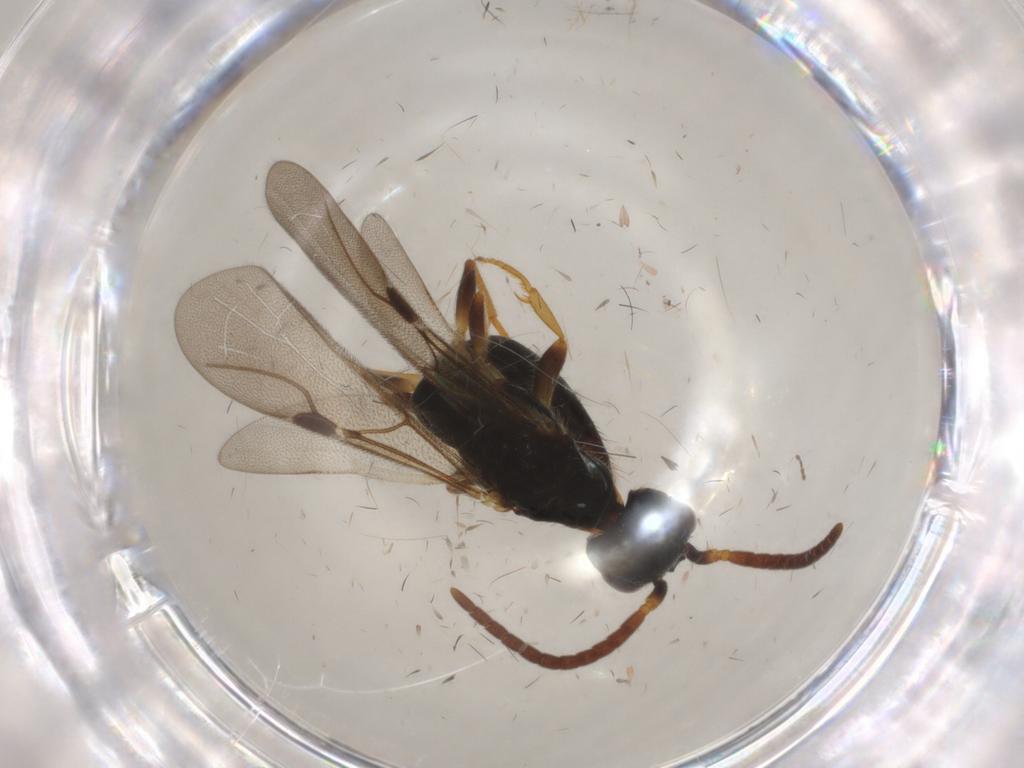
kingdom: Animalia
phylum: Arthropoda
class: Insecta
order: Hymenoptera
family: Bethylidae
